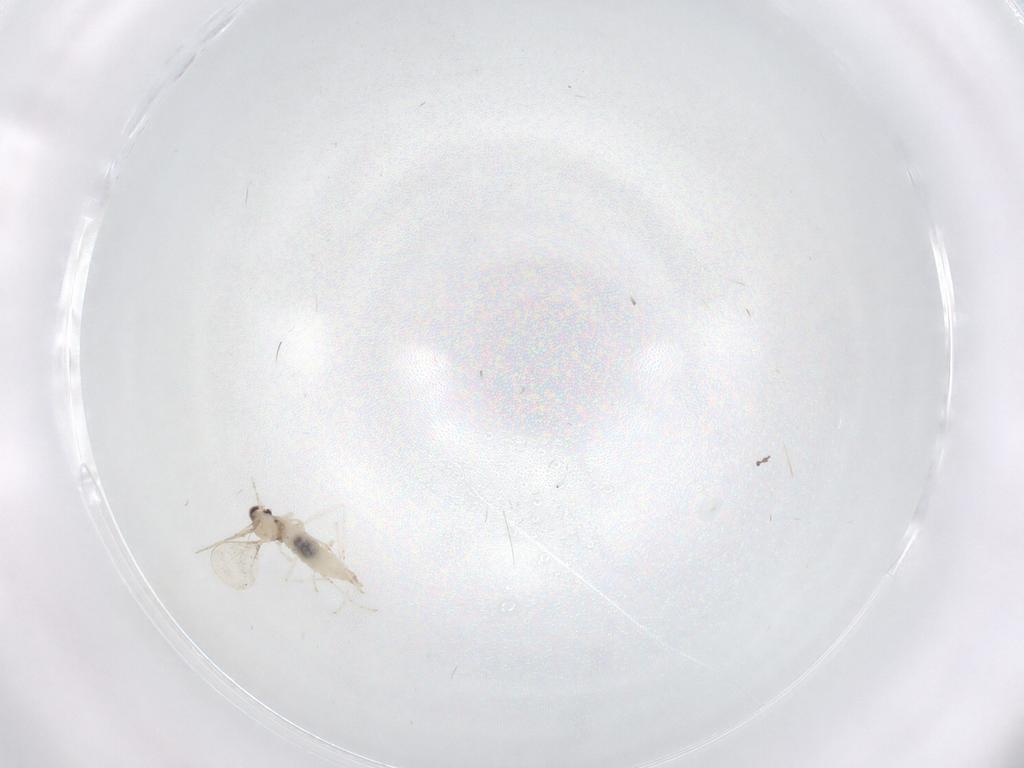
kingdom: Animalia
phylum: Arthropoda
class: Insecta
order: Diptera
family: Cecidomyiidae
